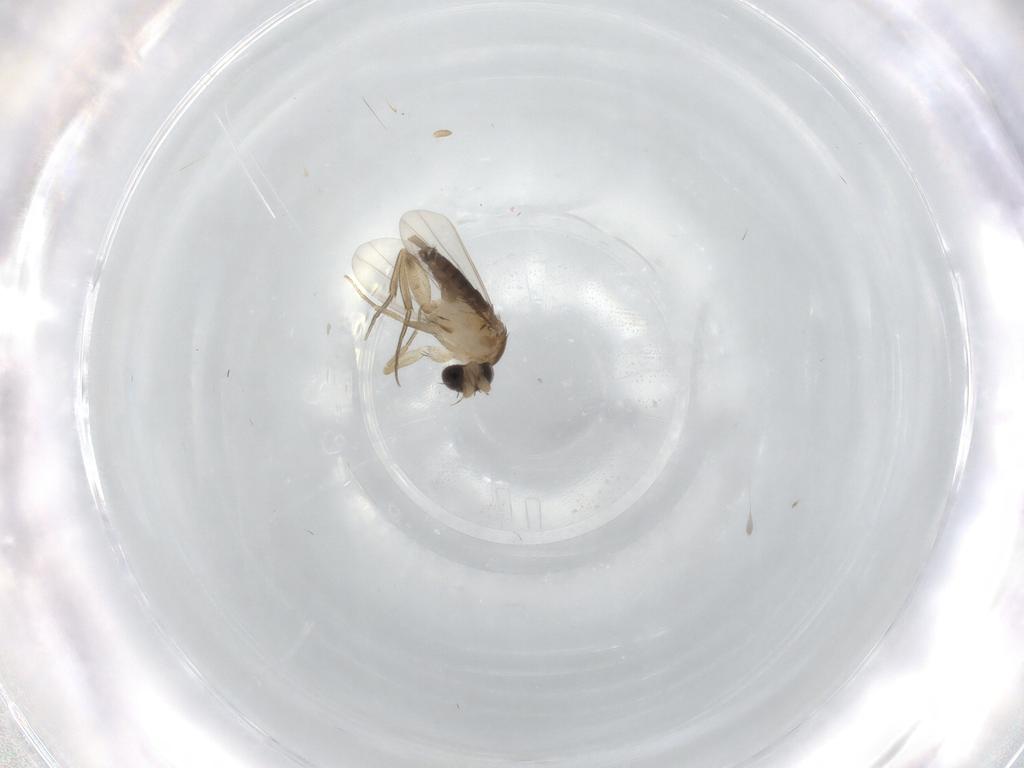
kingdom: Animalia
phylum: Arthropoda
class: Insecta
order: Diptera
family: Phoridae
